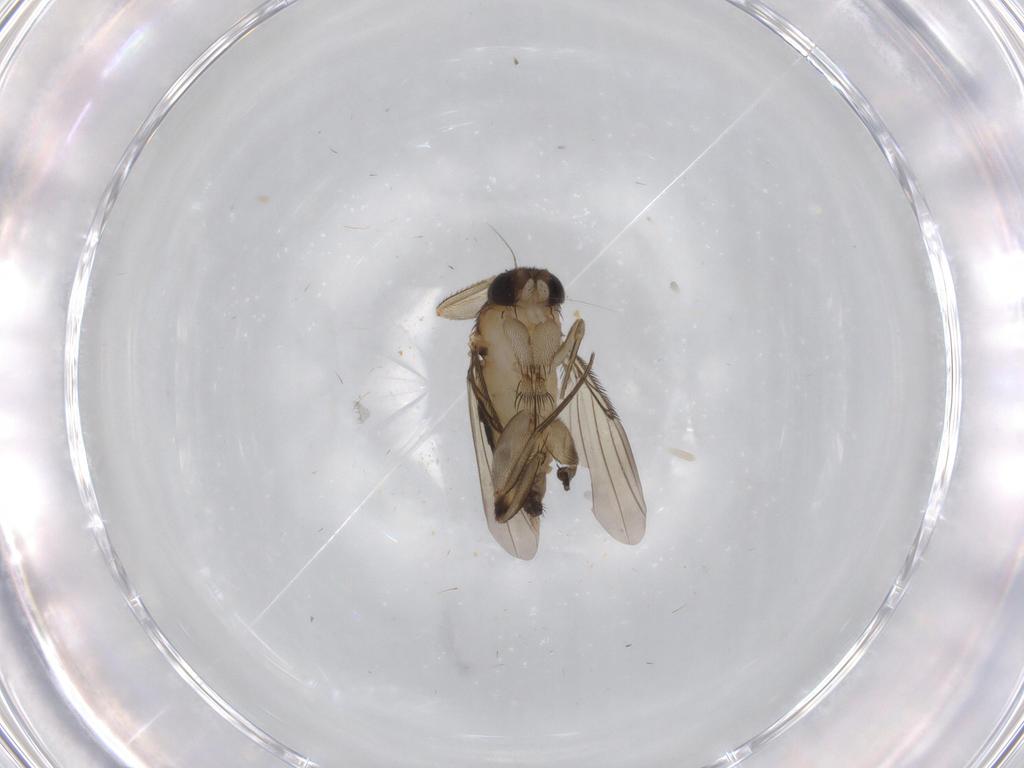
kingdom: Animalia
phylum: Arthropoda
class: Insecta
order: Diptera
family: Phoridae
